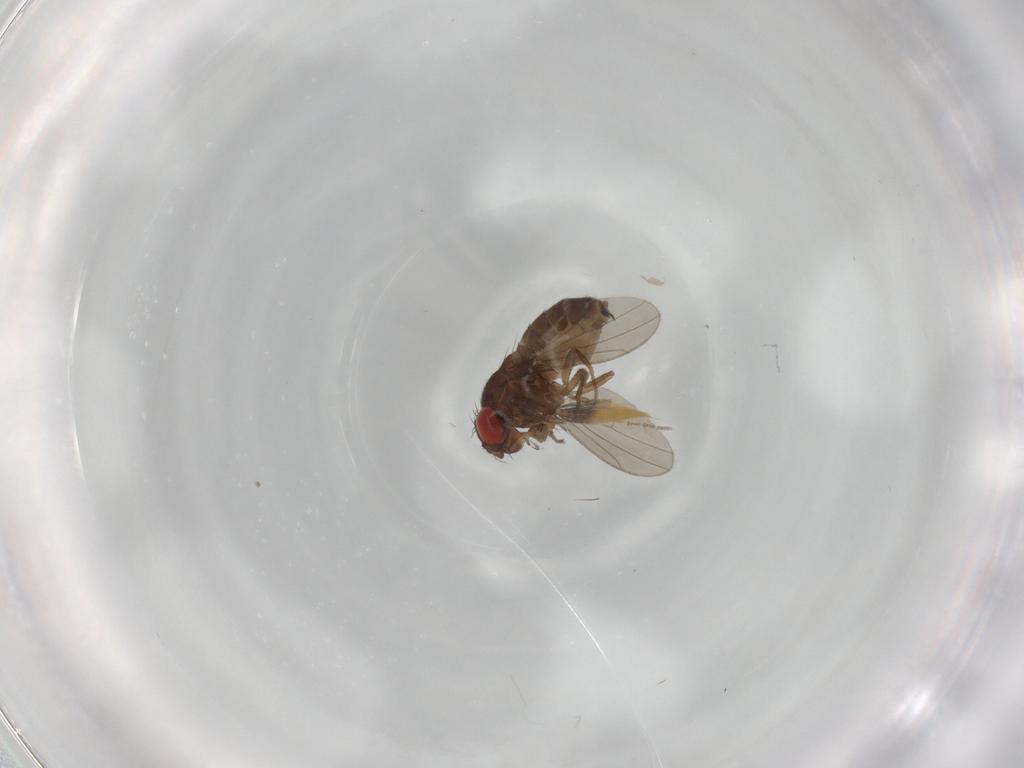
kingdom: Animalia
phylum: Arthropoda
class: Insecta
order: Diptera
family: Drosophilidae
